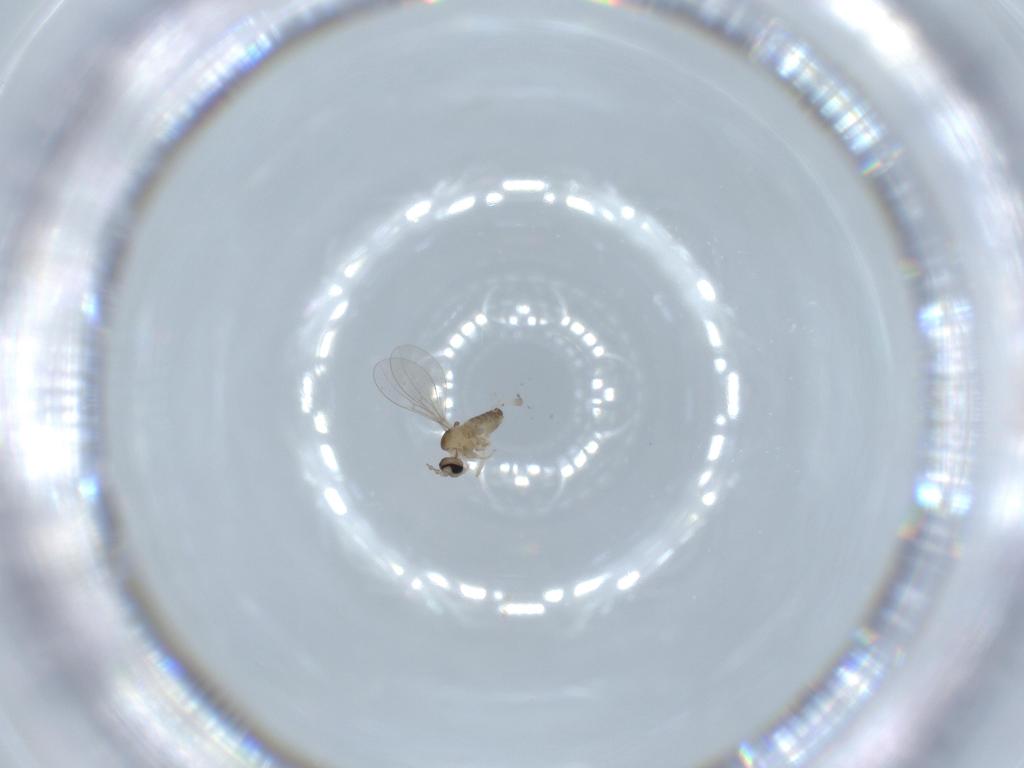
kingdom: Animalia
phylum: Arthropoda
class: Insecta
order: Diptera
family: Cecidomyiidae
